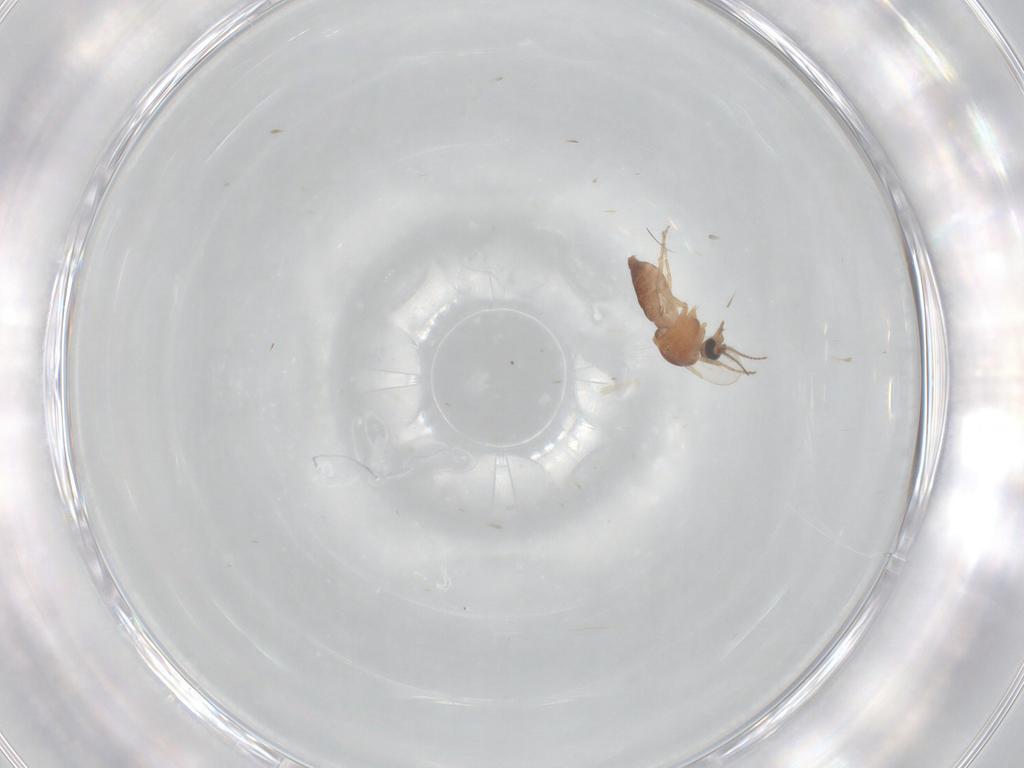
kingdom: Animalia
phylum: Arthropoda
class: Insecta
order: Diptera
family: Ceratopogonidae
